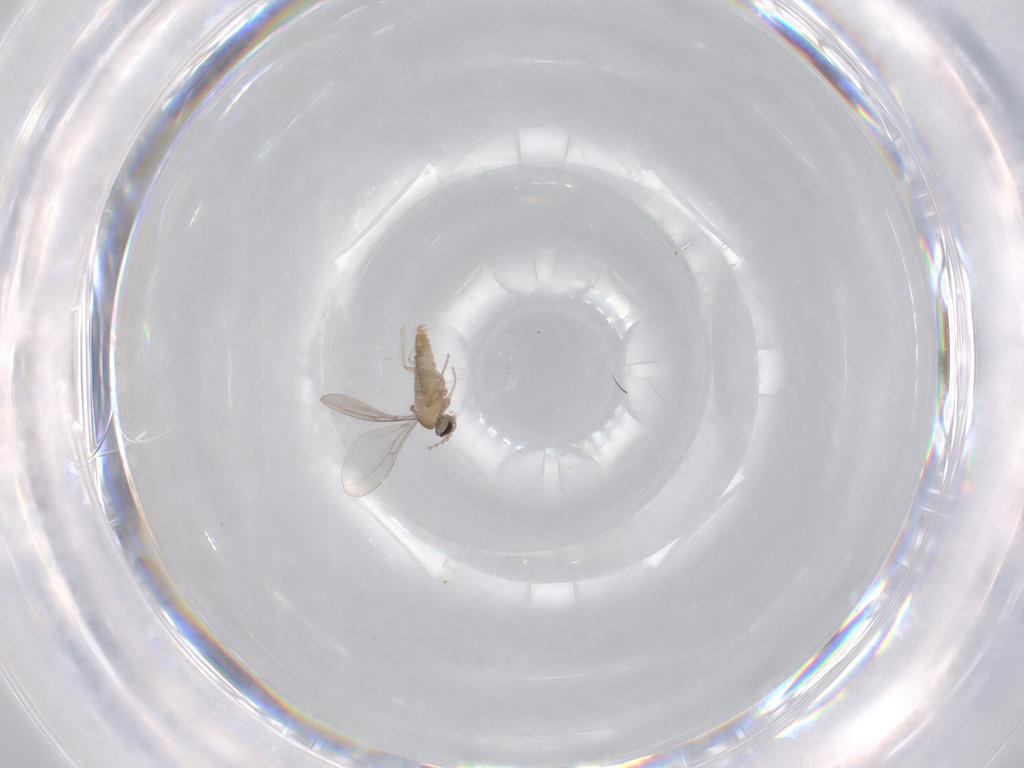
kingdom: Animalia
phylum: Arthropoda
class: Insecta
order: Diptera
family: Cecidomyiidae
